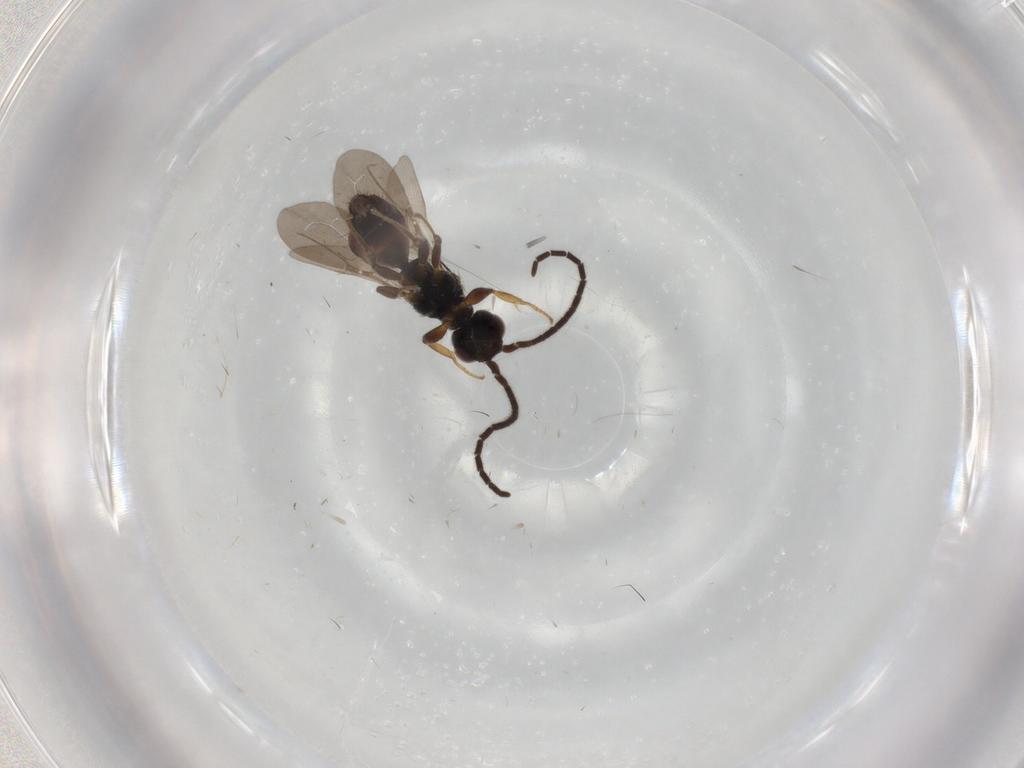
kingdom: Animalia
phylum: Arthropoda
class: Insecta
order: Hymenoptera
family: Bethylidae
